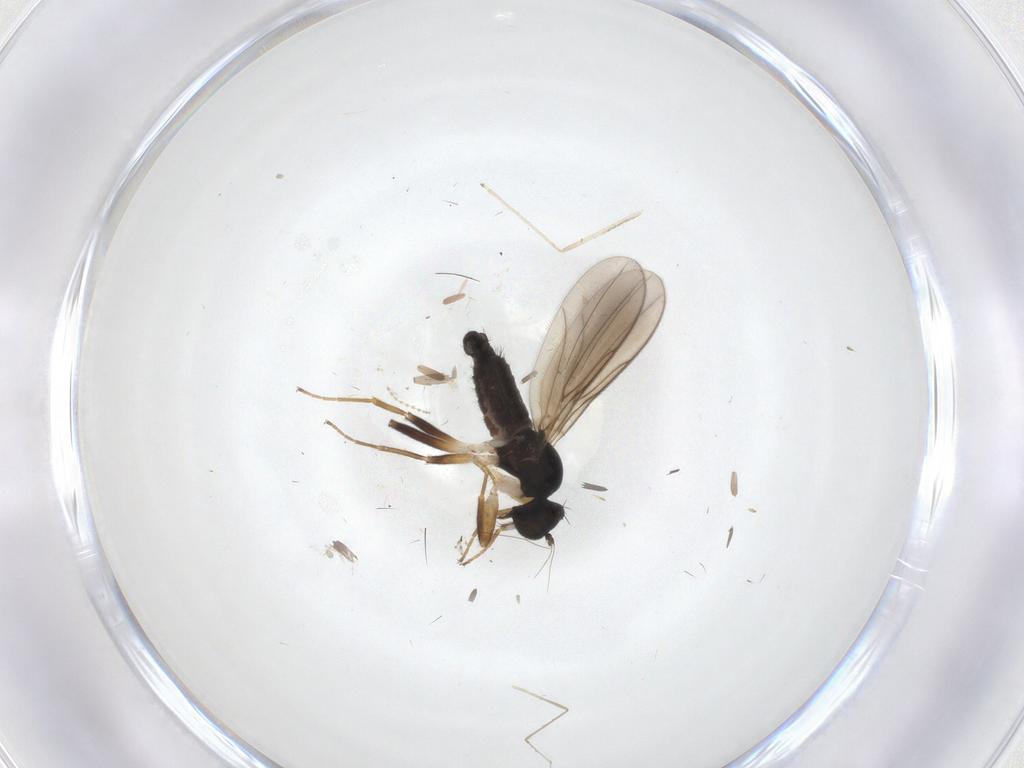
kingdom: Animalia
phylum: Arthropoda
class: Insecta
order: Diptera
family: Hybotidae
